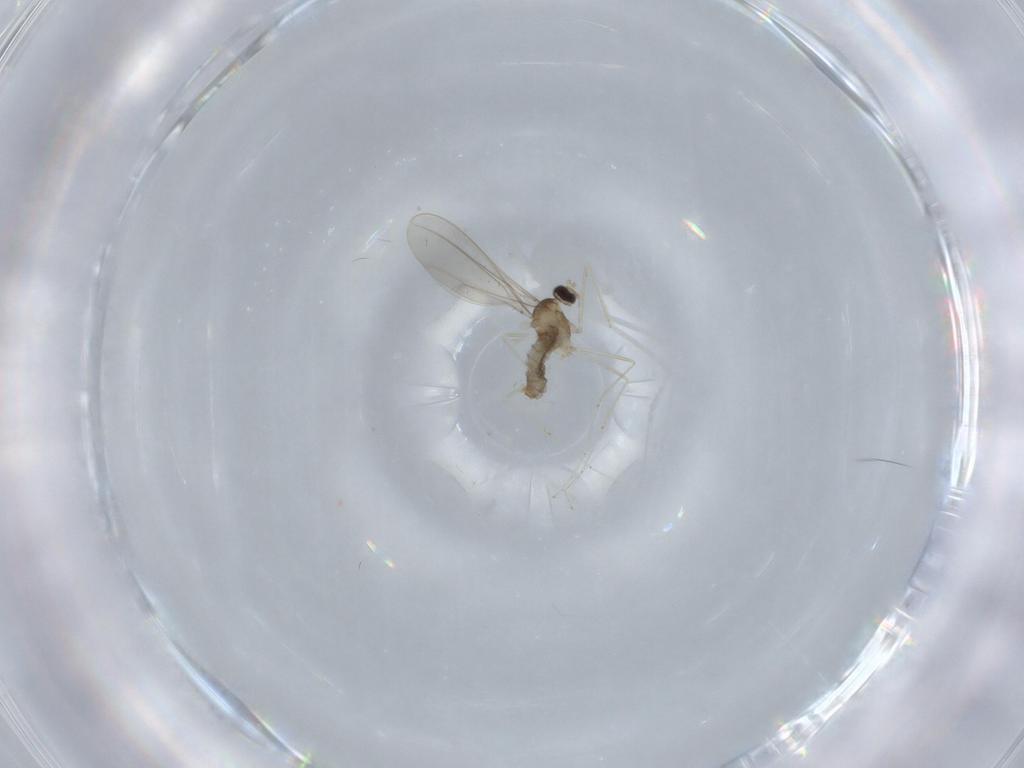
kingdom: Animalia
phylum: Arthropoda
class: Insecta
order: Diptera
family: Cecidomyiidae
